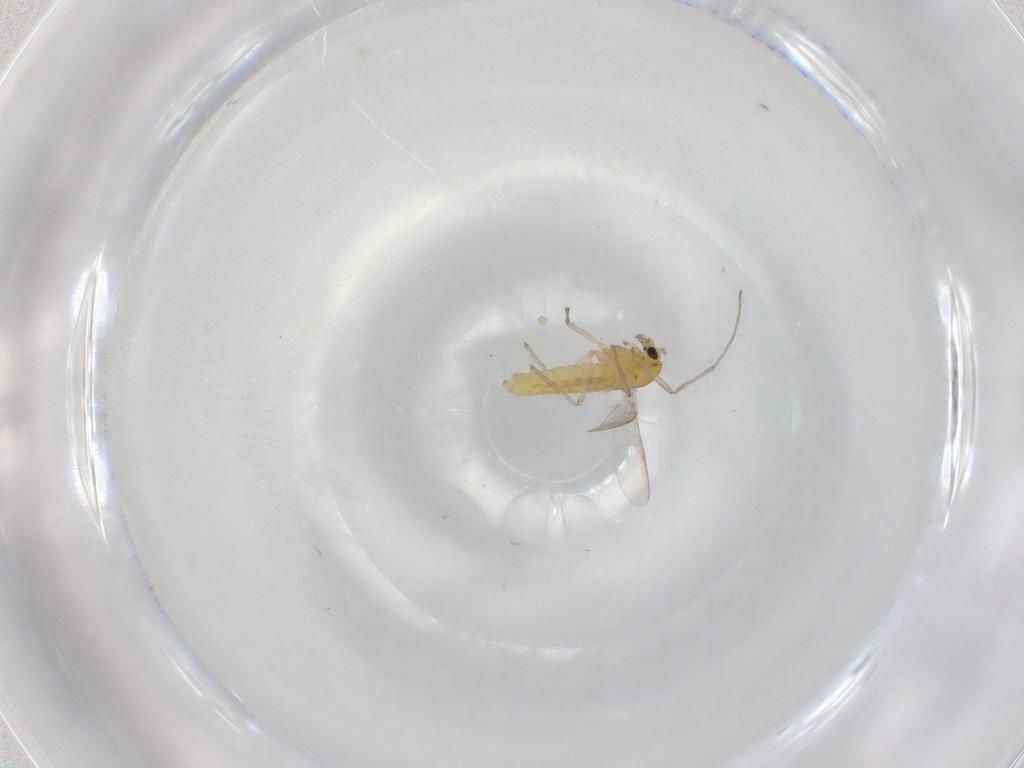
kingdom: Animalia
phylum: Arthropoda
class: Insecta
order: Diptera
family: Chironomidae
